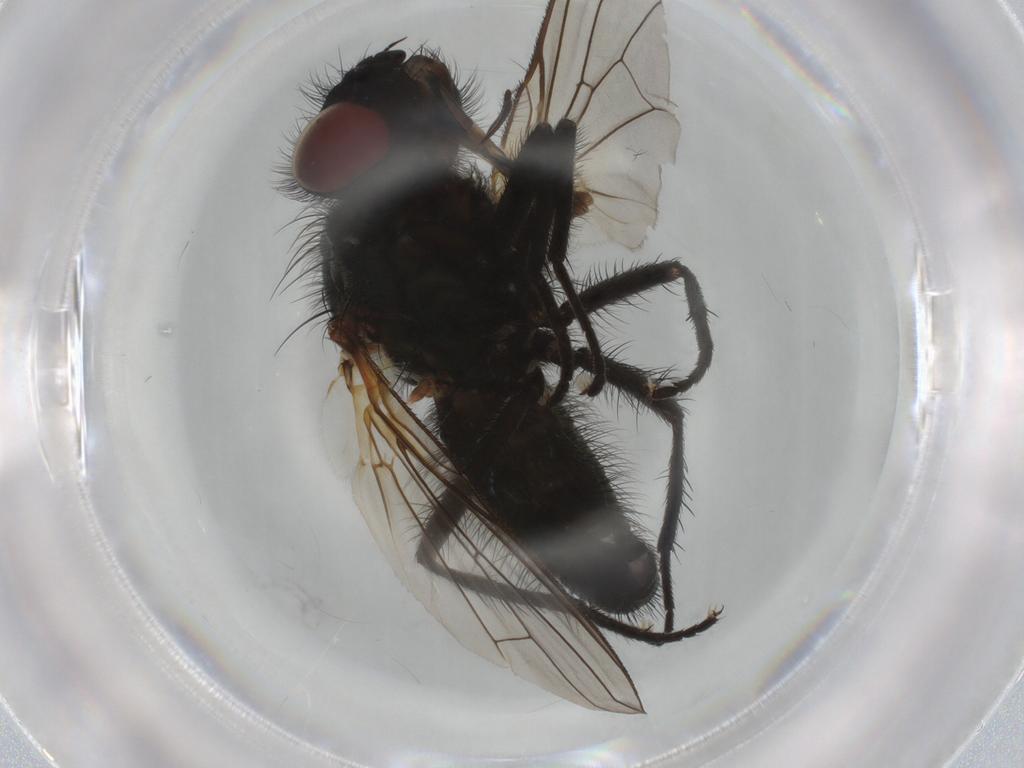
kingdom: Animalia
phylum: Arthropoda
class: Insecta
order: Diptera
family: Anthomyiidae
